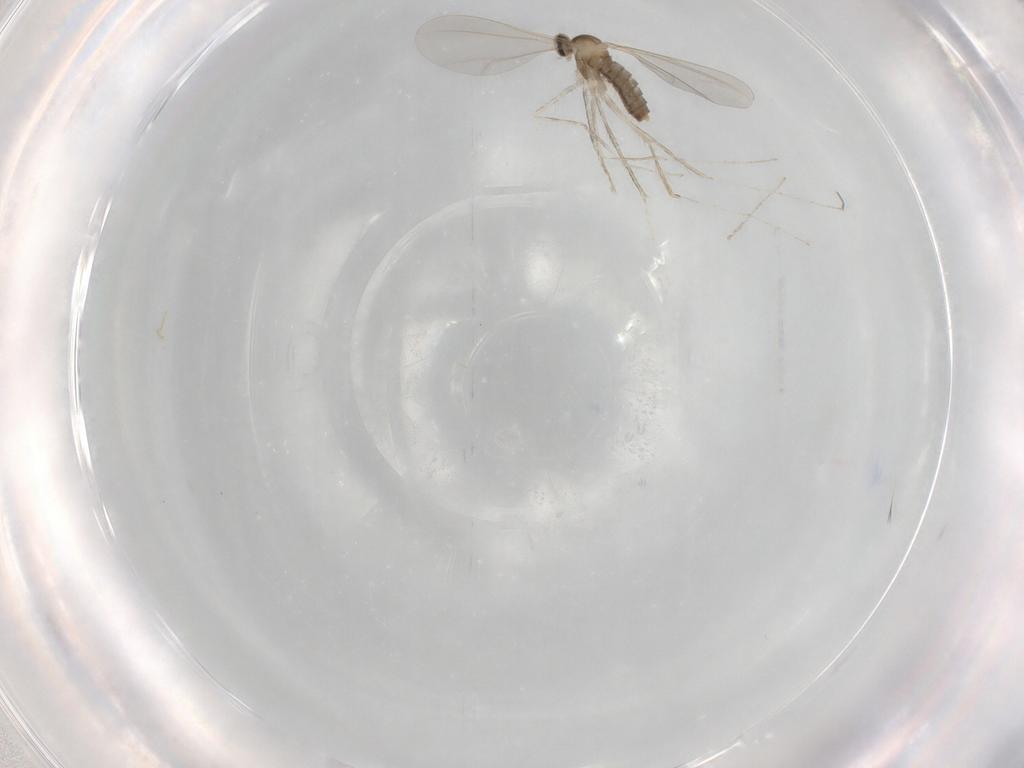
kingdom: Animalia
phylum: Arthropoda
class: Insecta
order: Diptera
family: Cecidomyiidae
